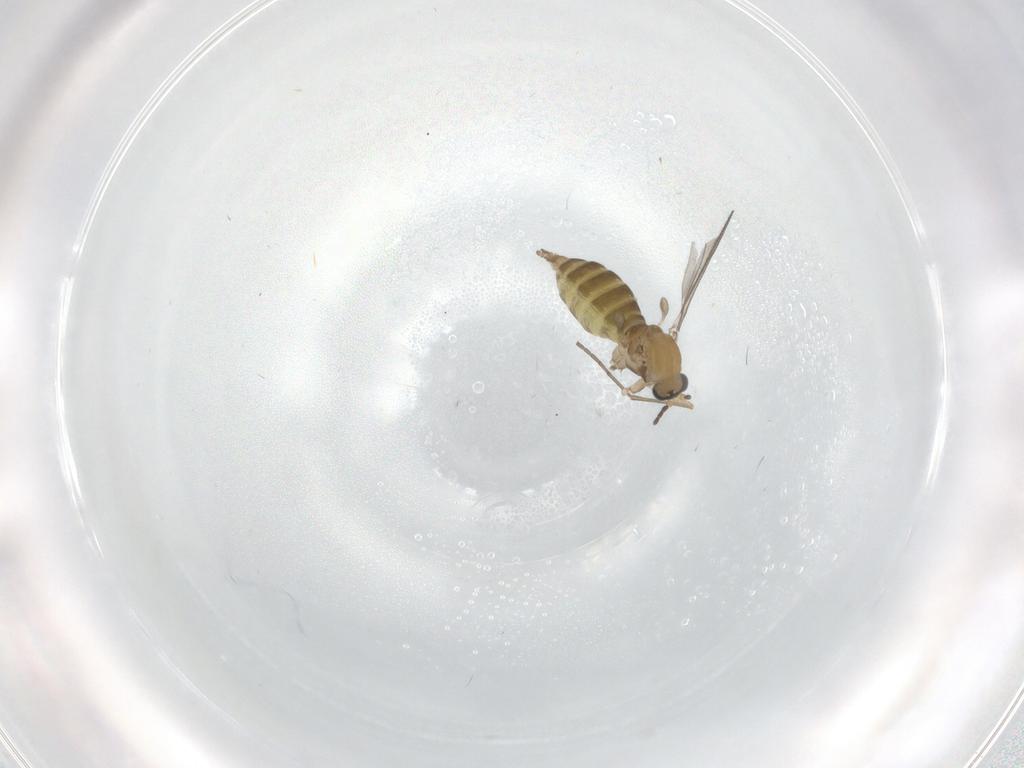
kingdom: Animalia
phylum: Arthropoda
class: Insecta
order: Diptera
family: Sciaridae
